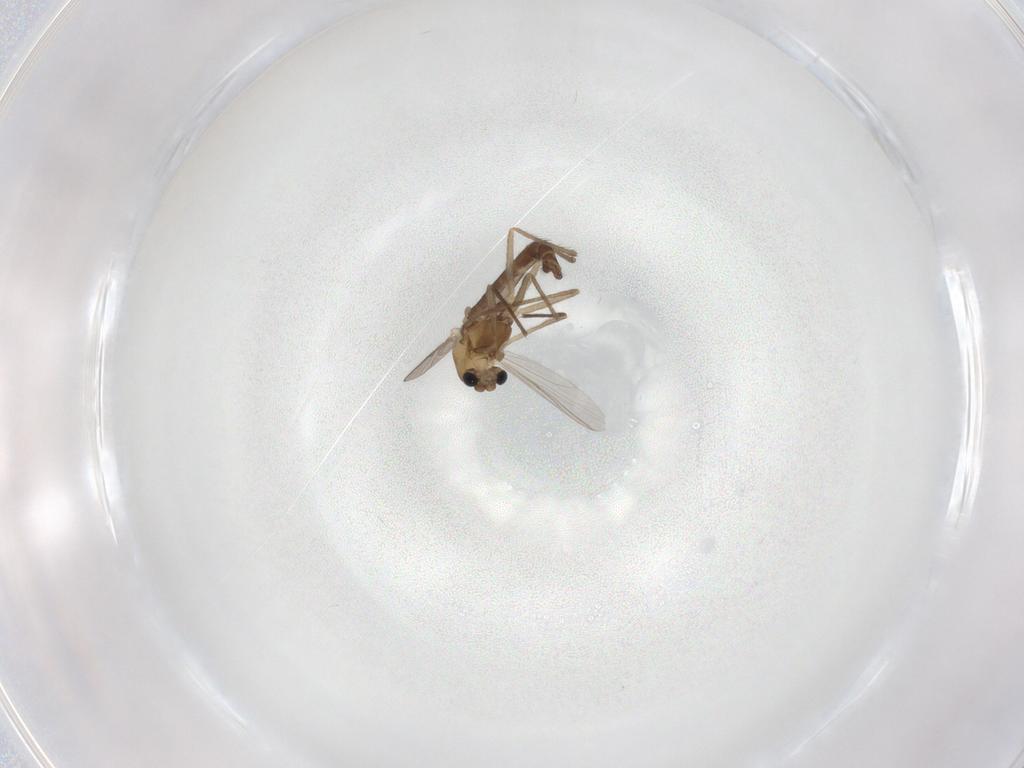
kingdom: Animalia
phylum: Arthropoda
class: Insecta
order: Diptera
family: Chironomidae
